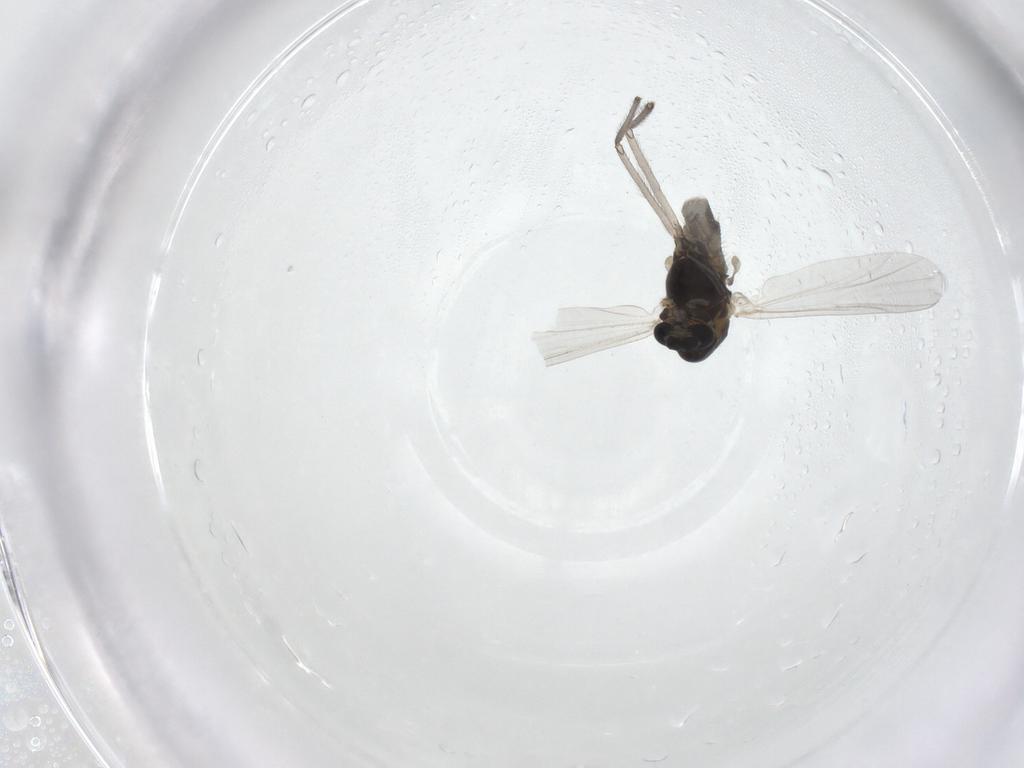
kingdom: Animalia
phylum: Arthropoda
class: Insecta
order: Diptera
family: Chironomidae
